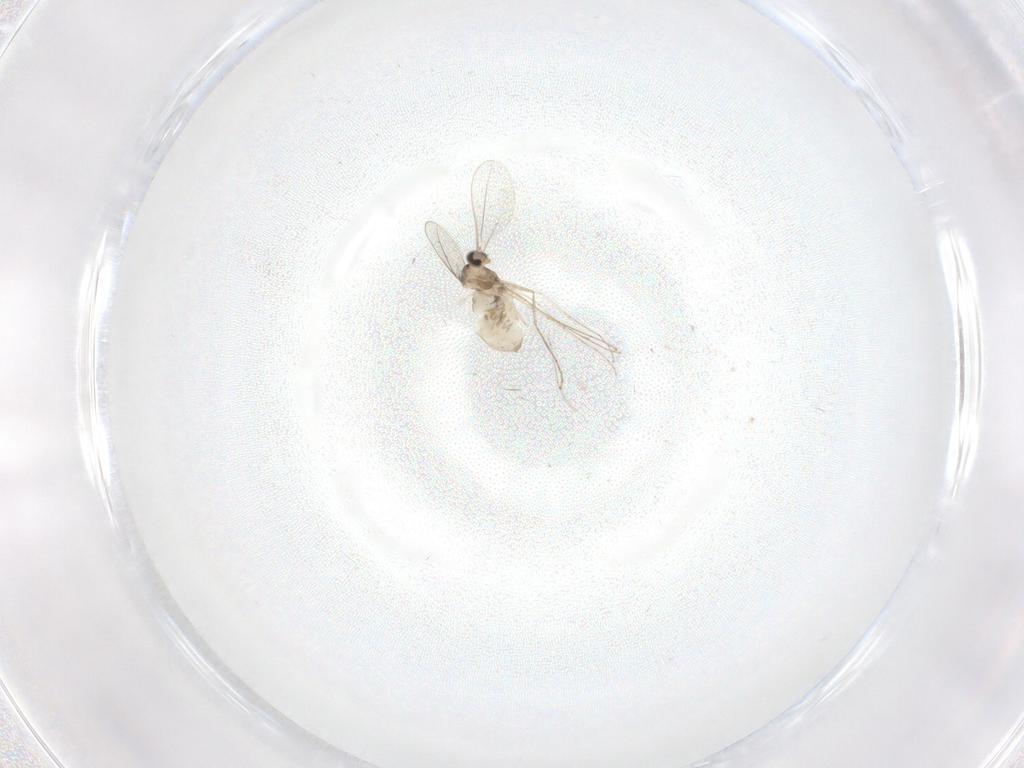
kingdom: Animalia
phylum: Arthropoda
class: Insecta
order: Diptera
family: Cecidomyiidae
